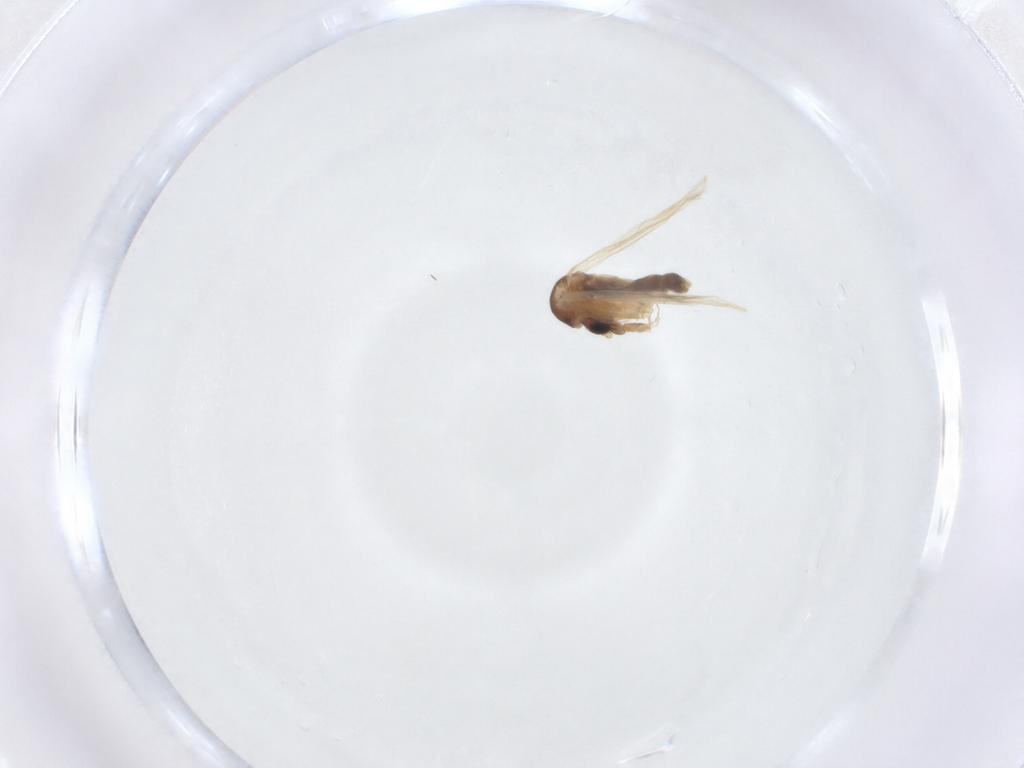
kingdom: Animalia
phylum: Arthropoda
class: Insecta
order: Diptera
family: Psychodidae
